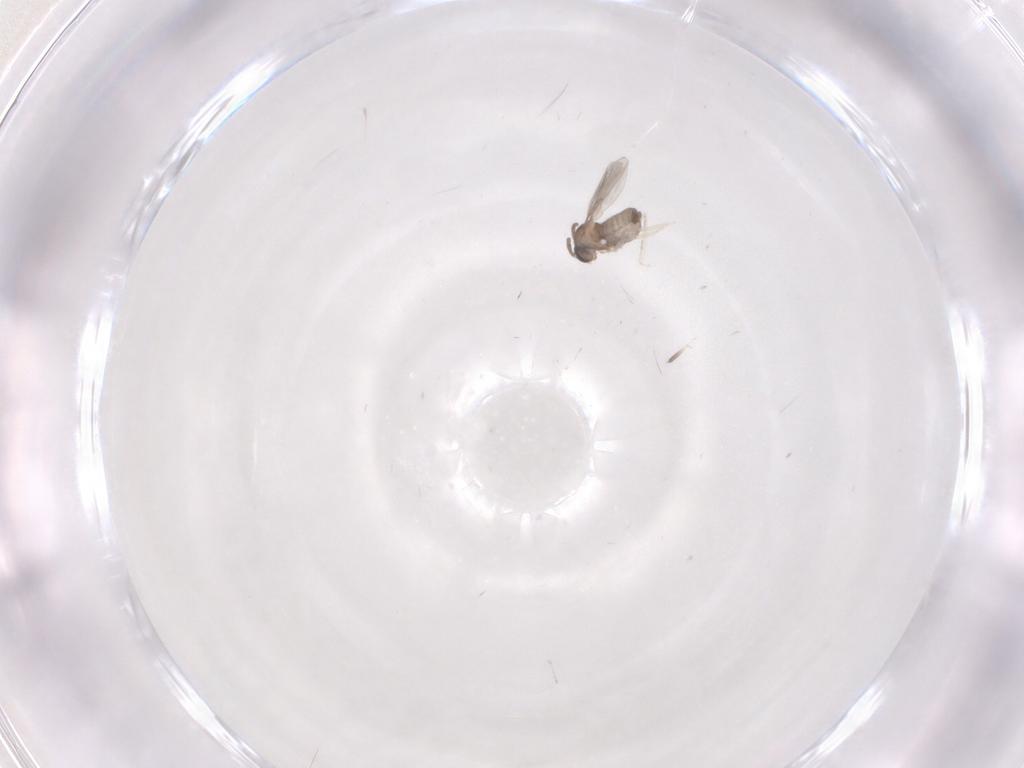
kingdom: Animalia
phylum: Arthropoda
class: Insecta
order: Diptera
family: Cecidomyiidae
